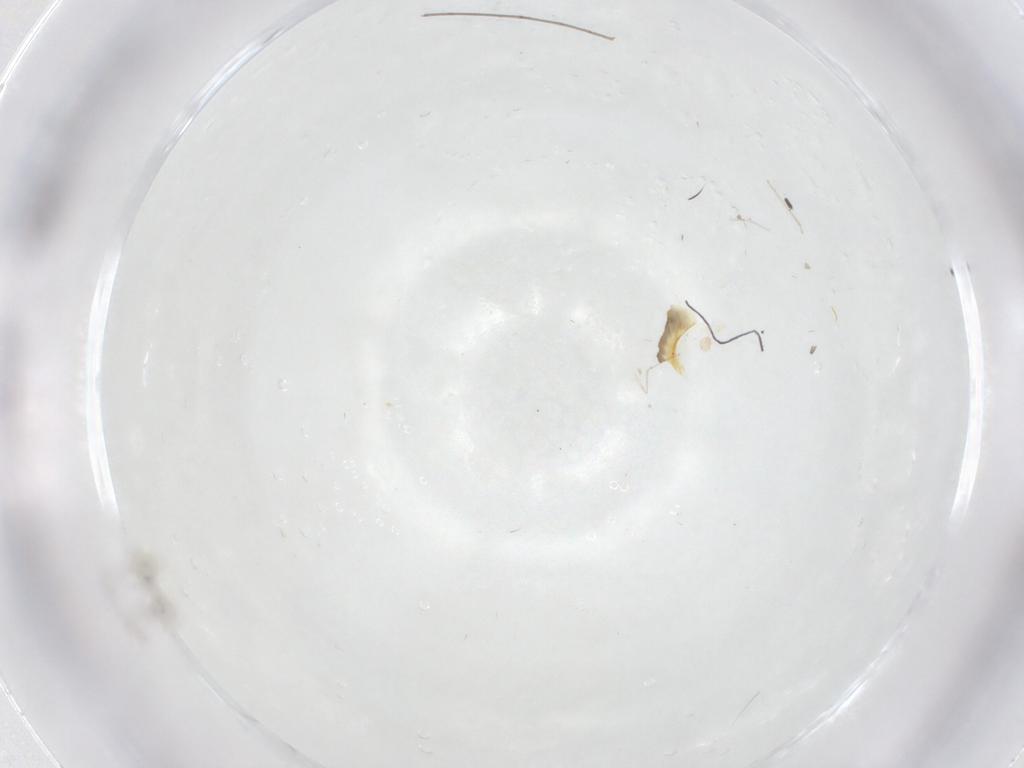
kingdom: Animalia
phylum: Arthropoda
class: Insecta
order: Diptera
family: Cecidomyiidae
